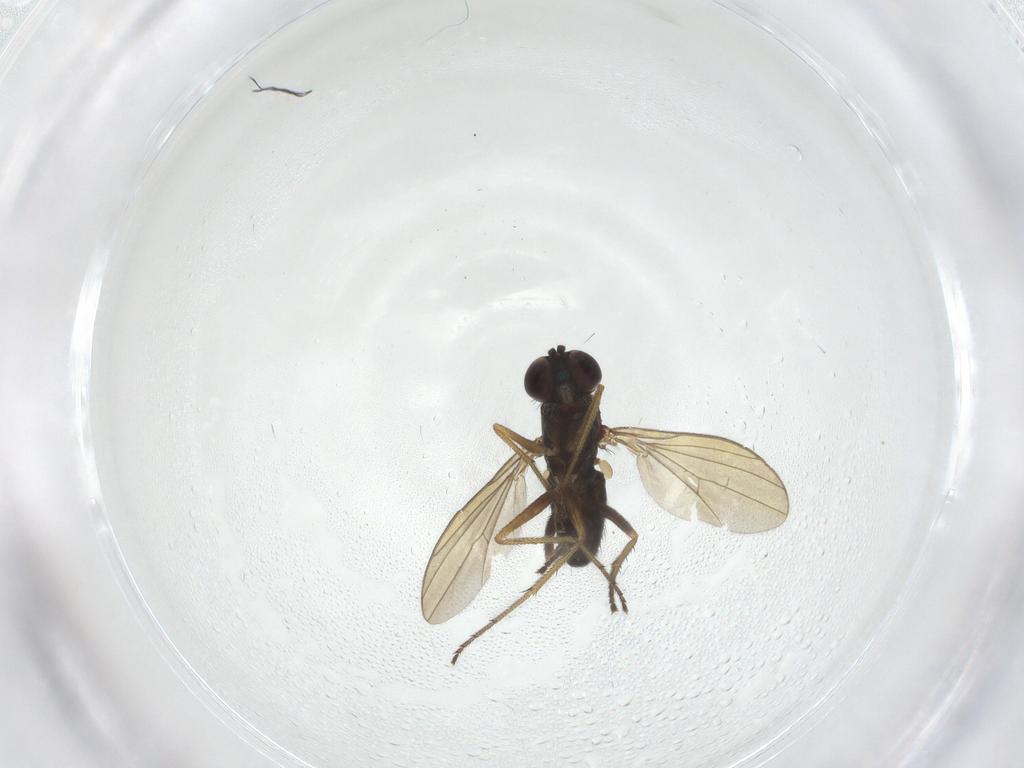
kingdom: Animalia
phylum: Arthropoda
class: Insecta
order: Diptera
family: Dolichopodidae
